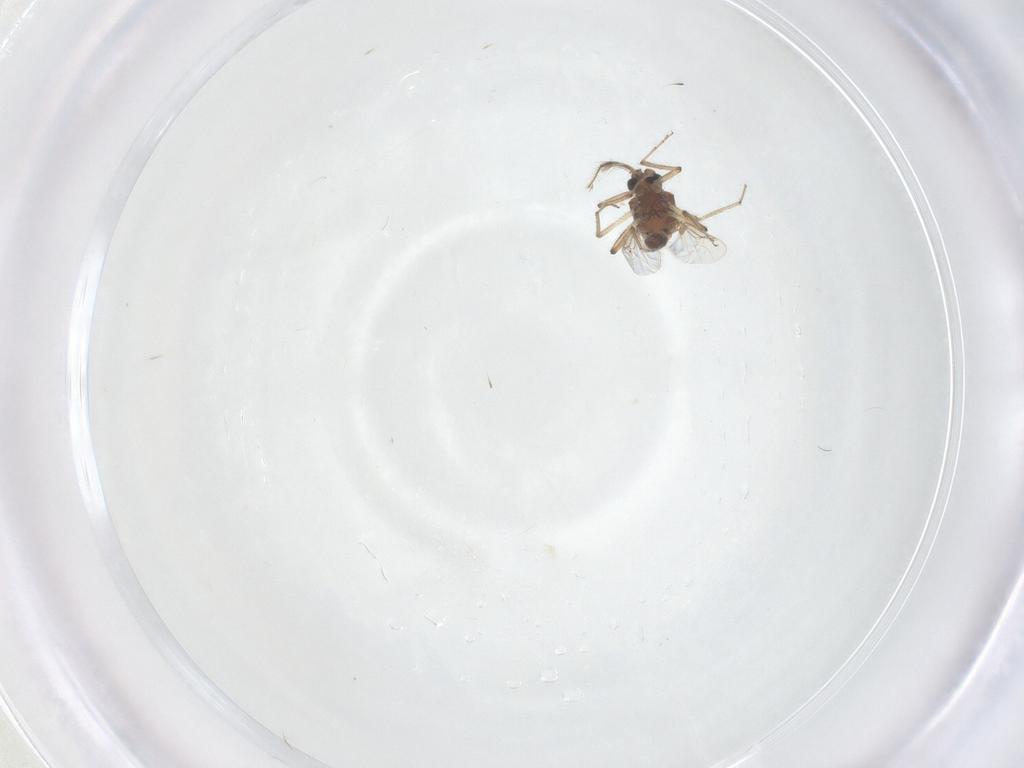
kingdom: Animalia
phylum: Arthropoda
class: Insecta
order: Diptera
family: Ceratopogonidae
